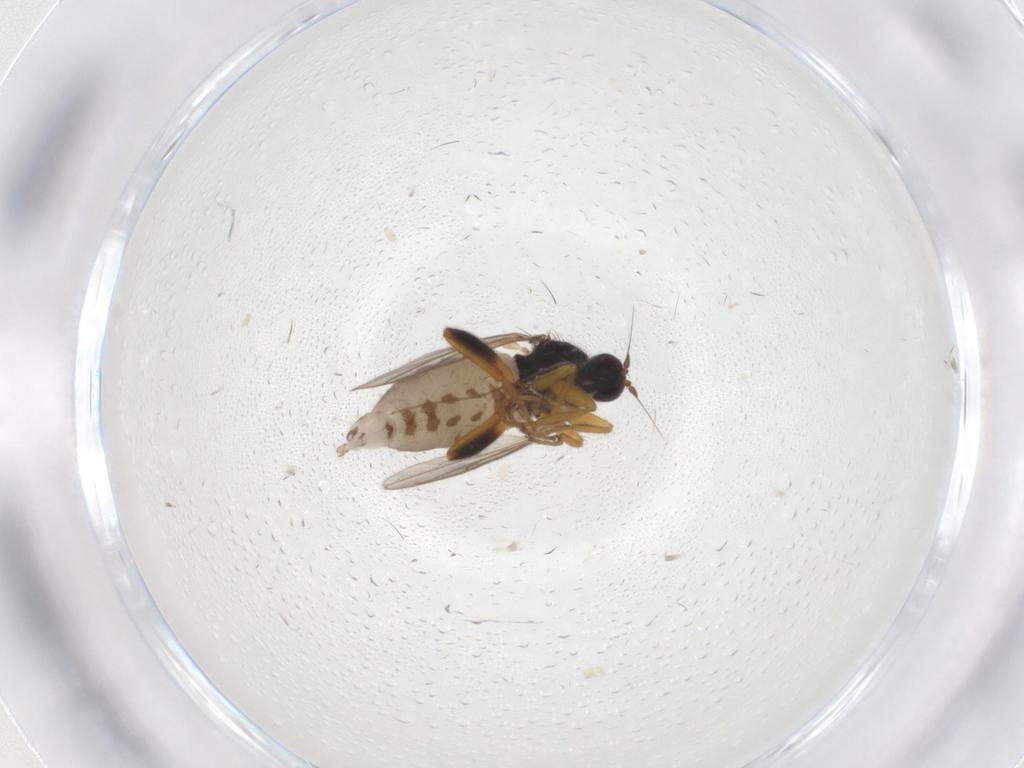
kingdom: Animalia
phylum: Arthropoda
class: Insecta
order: Diptera
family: Hybotidae
